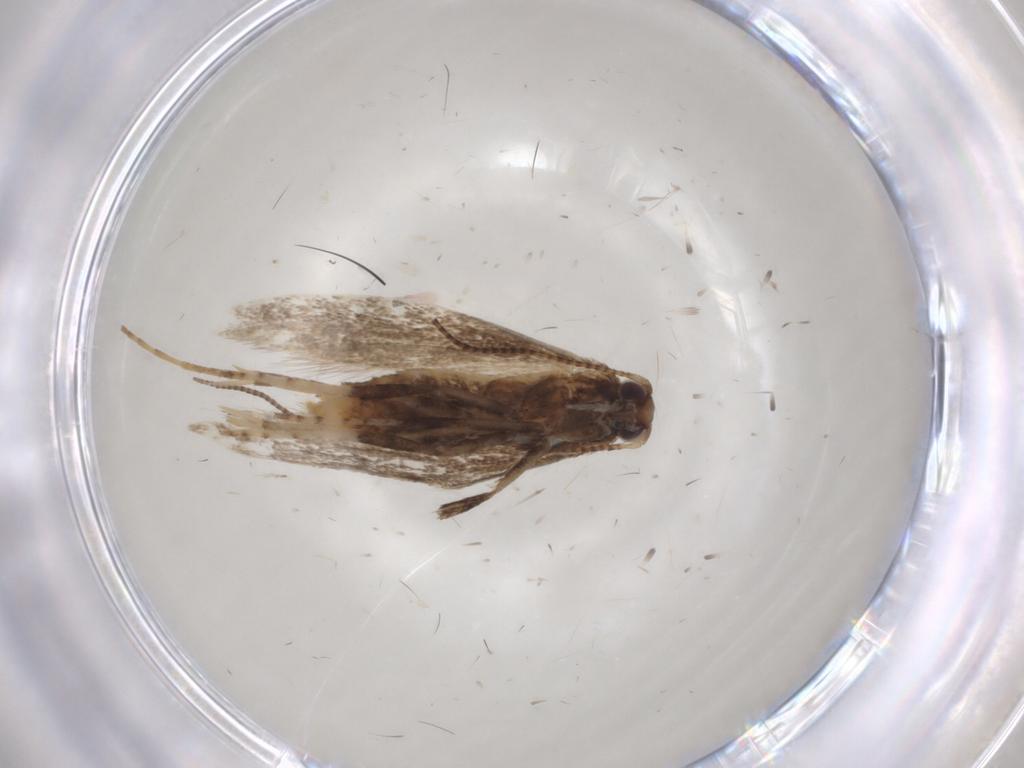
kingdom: Animalia
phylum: Arthropoda
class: Insecta
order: Lepidoptera
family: Gracillariidae
